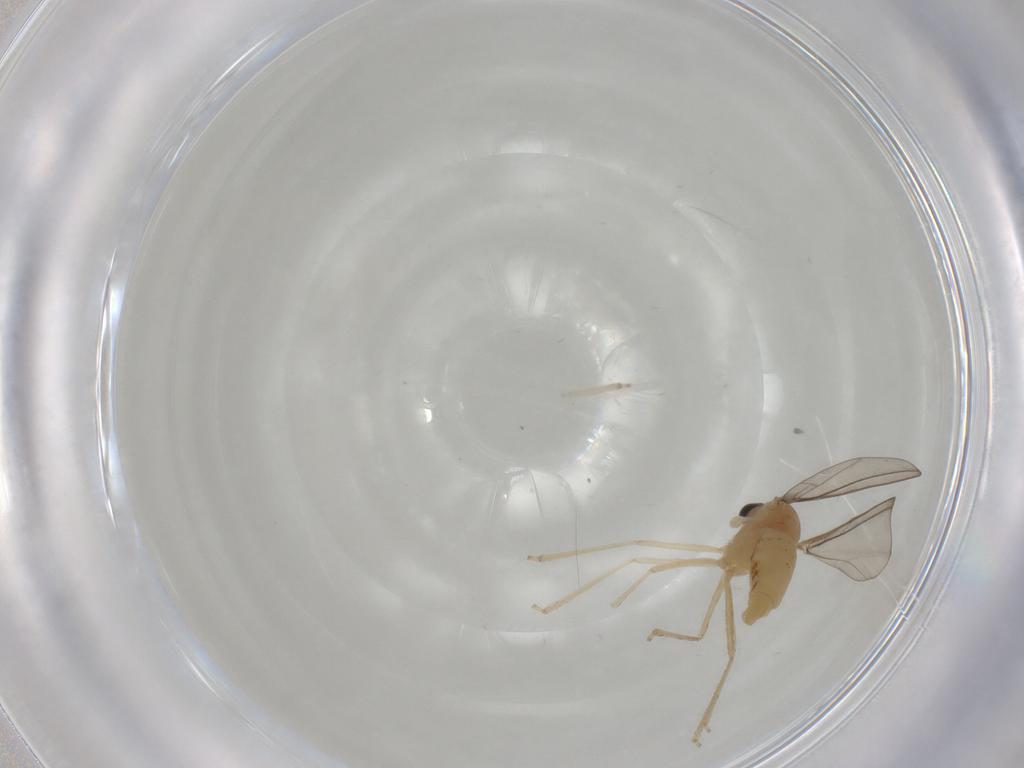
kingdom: Animalia
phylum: Arthropoda
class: Insecta
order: Diptera
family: Cecidomyiidae
